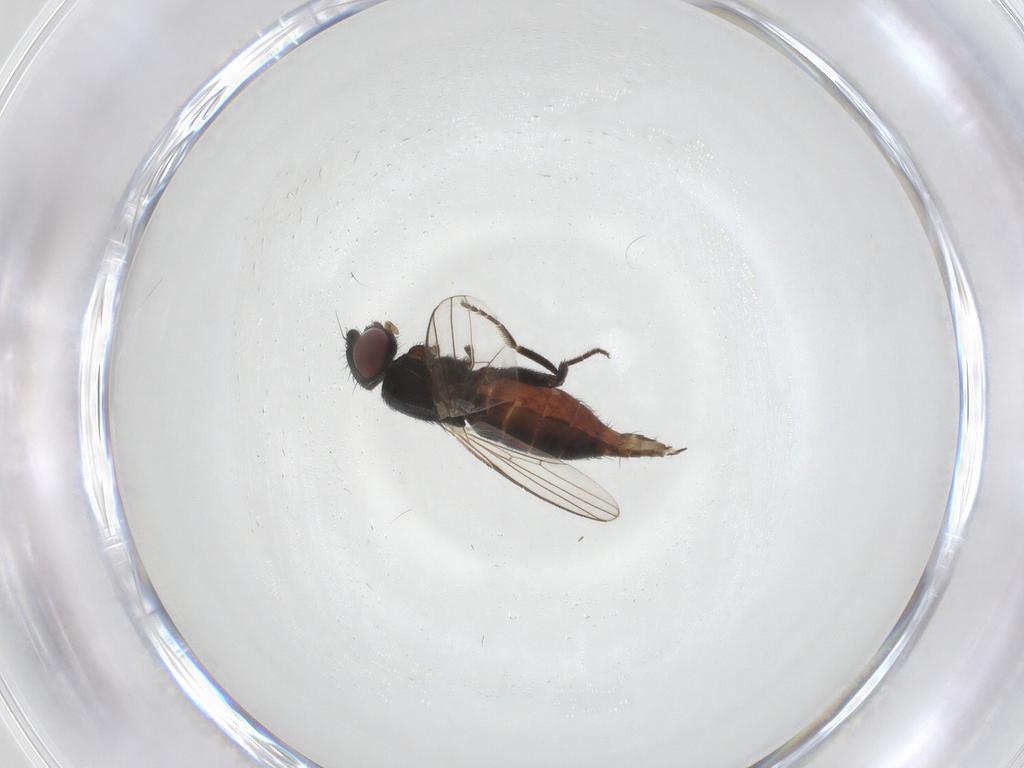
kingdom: Animalia
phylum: Arthropoda
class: Insecta
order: Diptera
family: Milichiidae
